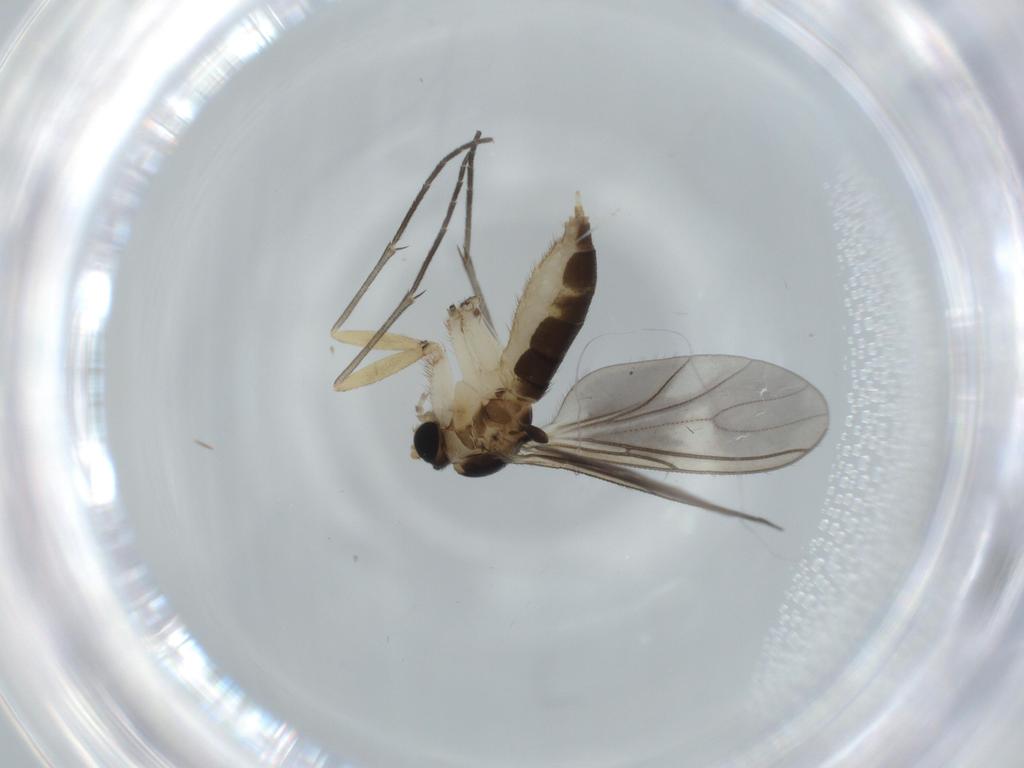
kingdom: Animalia
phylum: Arthropoda
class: Insecta
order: Diptera
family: Sciaridae
